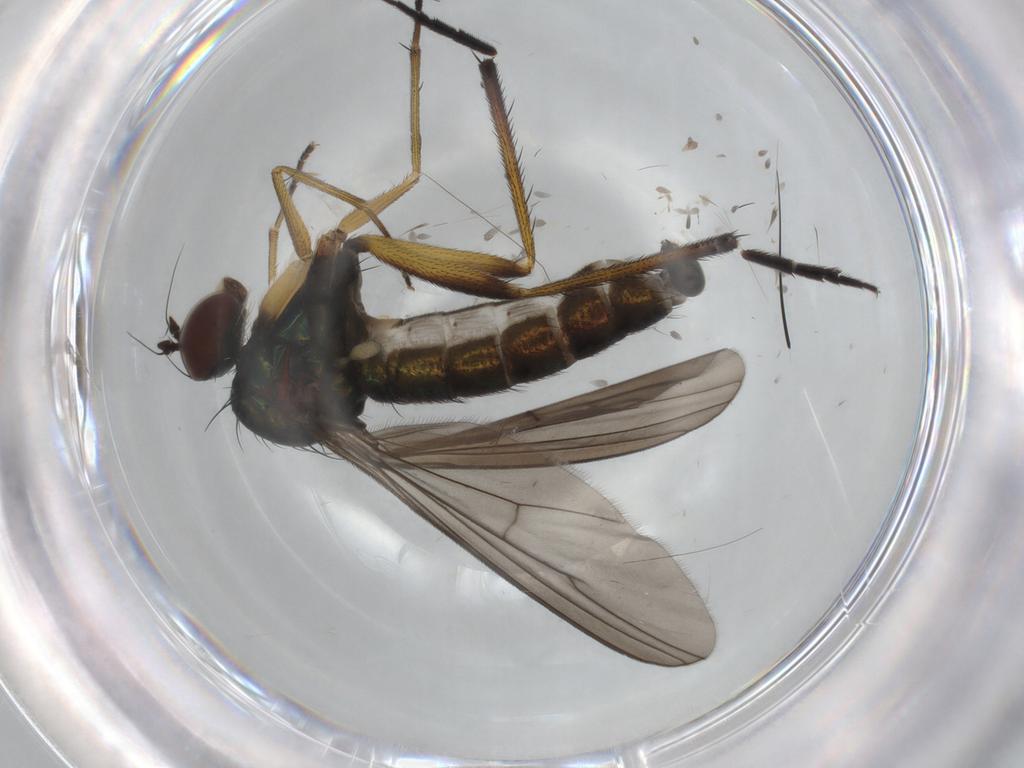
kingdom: Animalia
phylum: Arthropoda
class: Insecta
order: Diptera
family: Dolichopodidae
